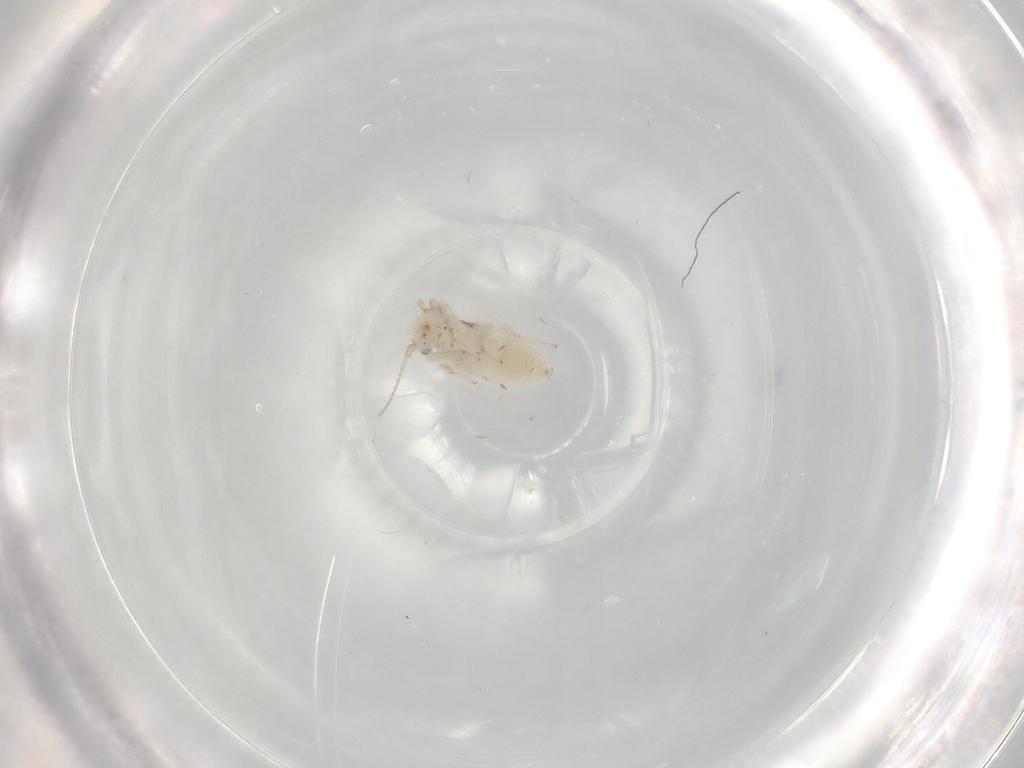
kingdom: Animalia
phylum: Arthropoda
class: Insecta
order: Psocodea
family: Lepidopsocidae
